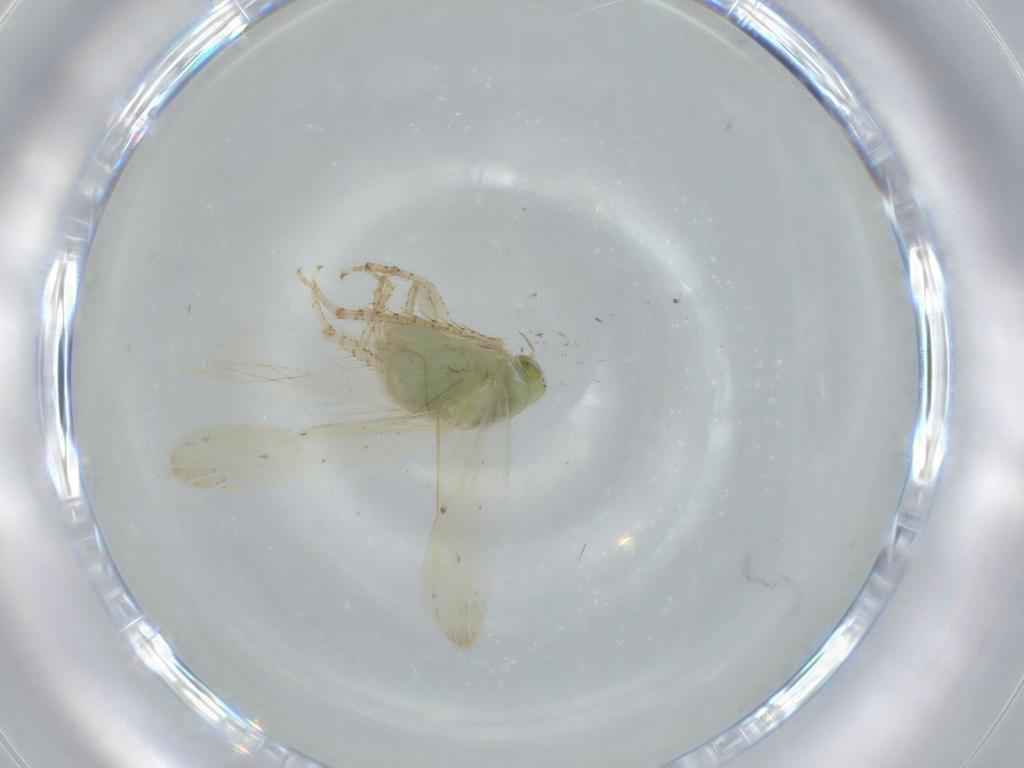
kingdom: Animalia
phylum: Arthropoda
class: Insecta
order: Hemiptera
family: Cicadellidae
